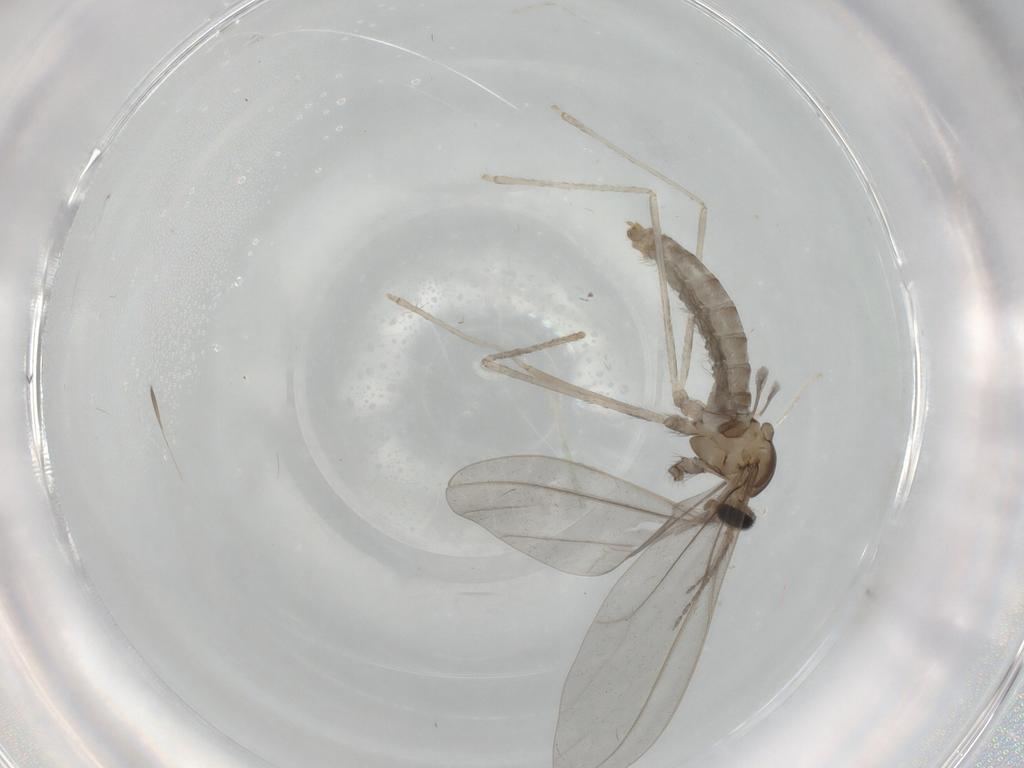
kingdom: Animalia
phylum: Arthropoda
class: Insecta
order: Diptera
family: Cecidomyiidae
